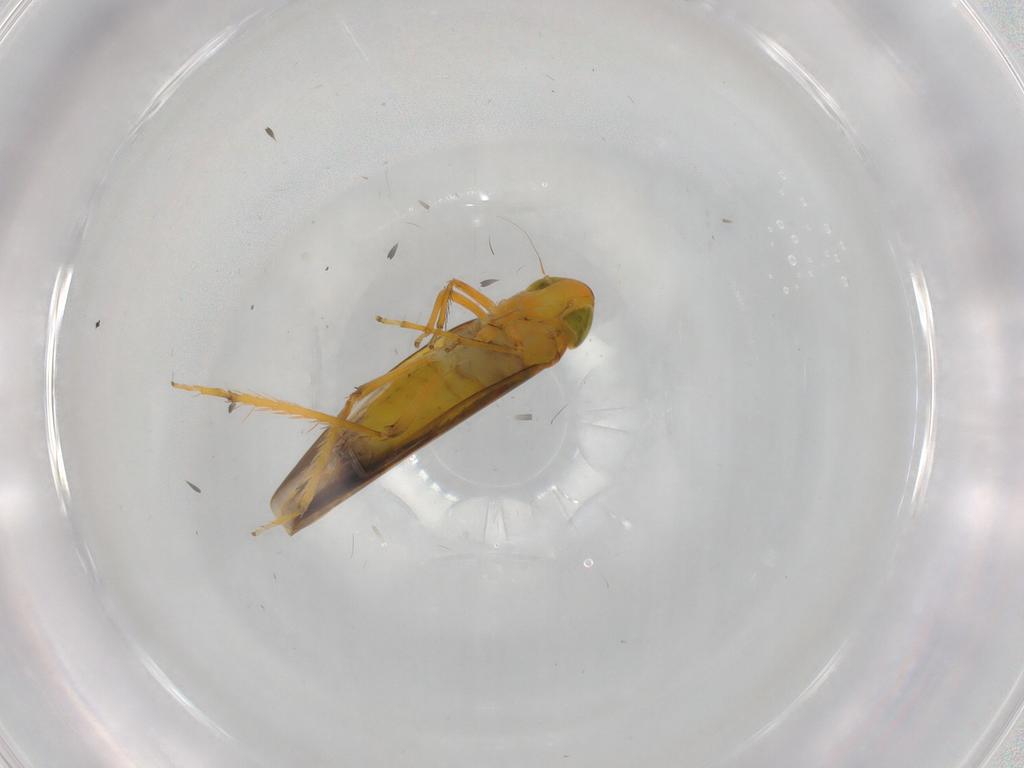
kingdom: Animalia
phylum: Arthropoda
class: Insecta
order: Hemiptera
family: Cicadellidae
